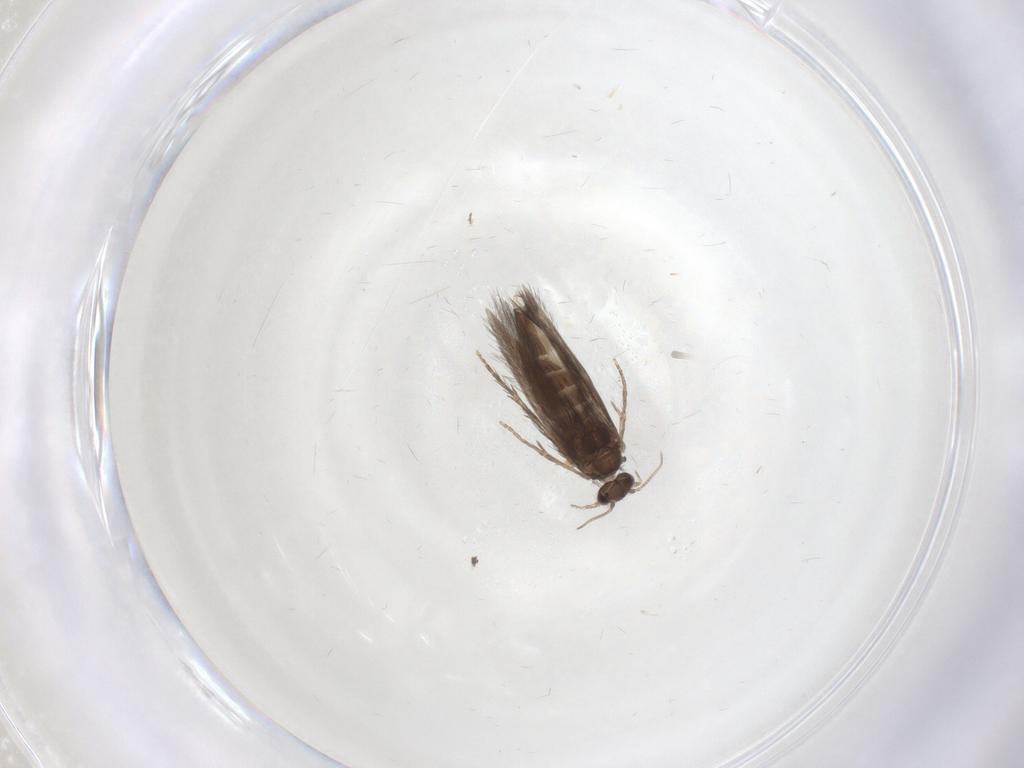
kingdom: Animalia
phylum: Arthropoda
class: Insecta
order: Trichoptera
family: Hydroptilidae
